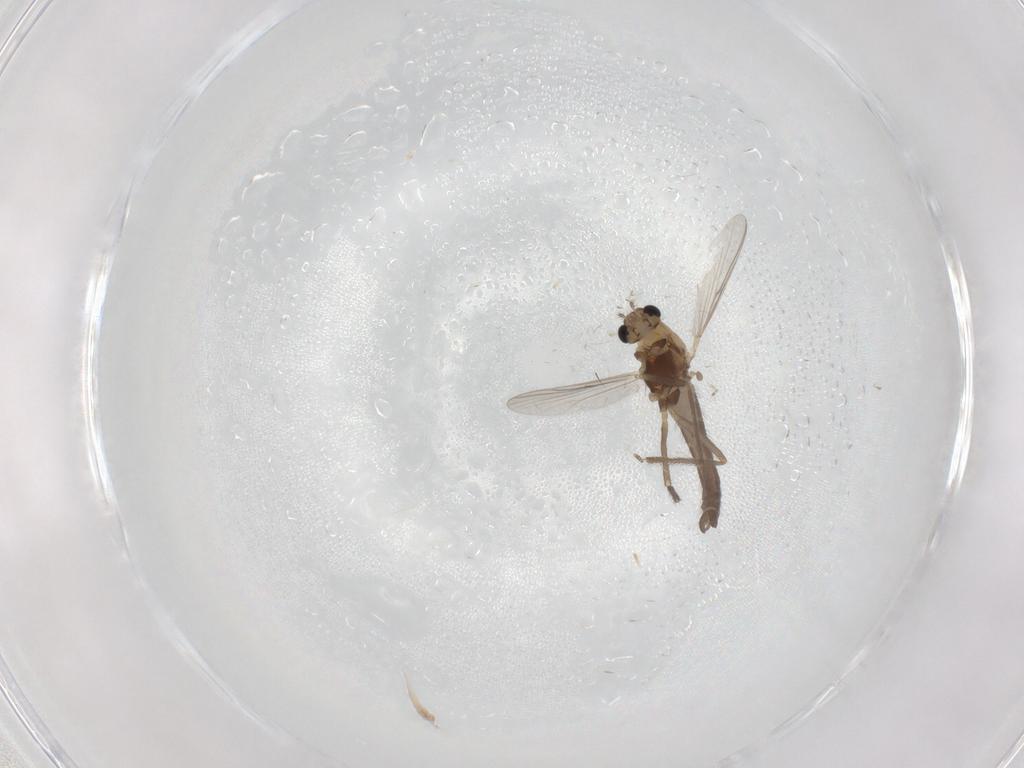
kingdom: Animalia
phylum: Arthropoda
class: Insecta
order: Diptera
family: Chironomidae
